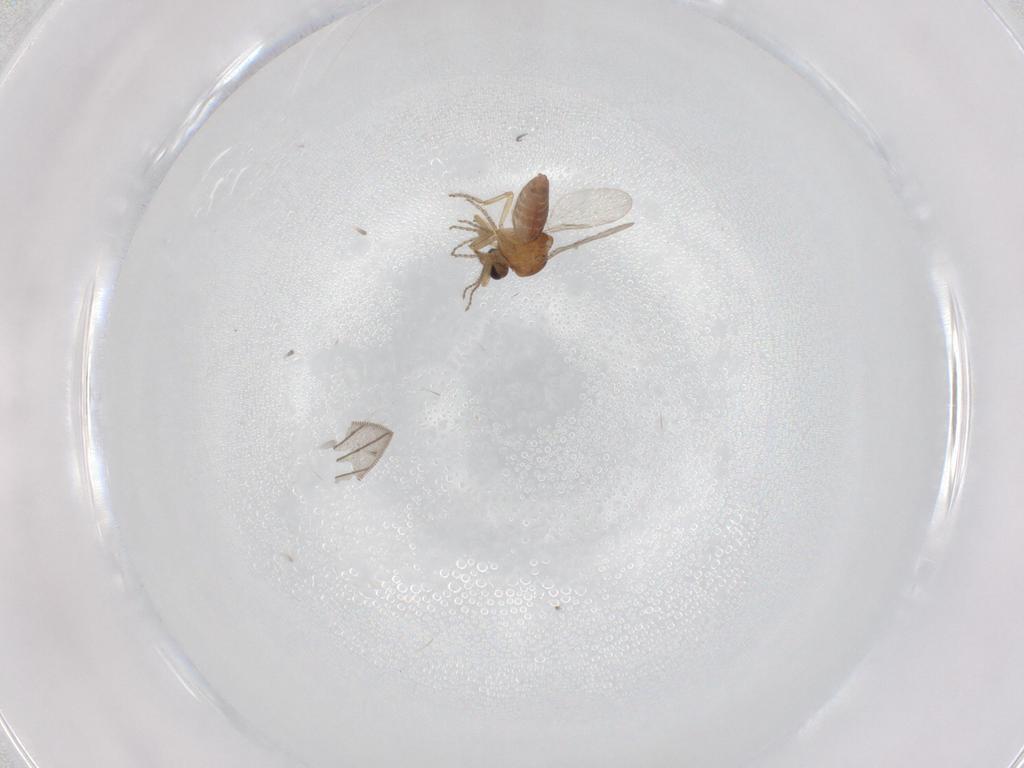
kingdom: Animalia
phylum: Arthropoda
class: Insecta
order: Diptera
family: Ceratopogonidae
